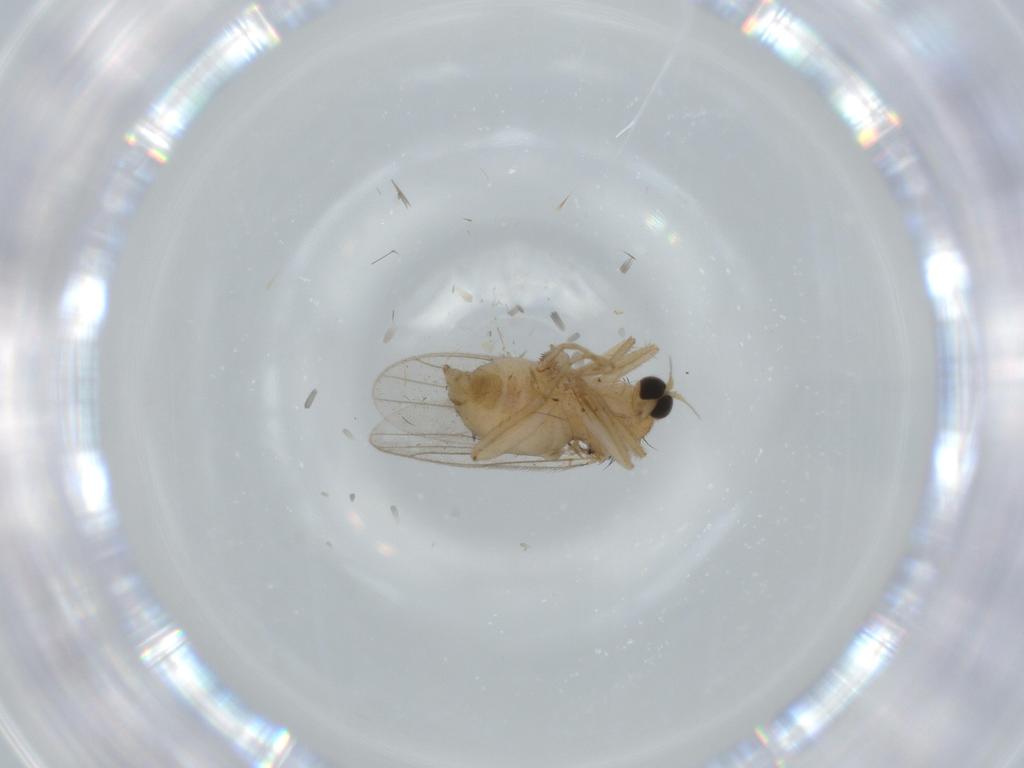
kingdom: Animalia
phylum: Arthropoda
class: Insecta
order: Diptera
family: Hybotidae
